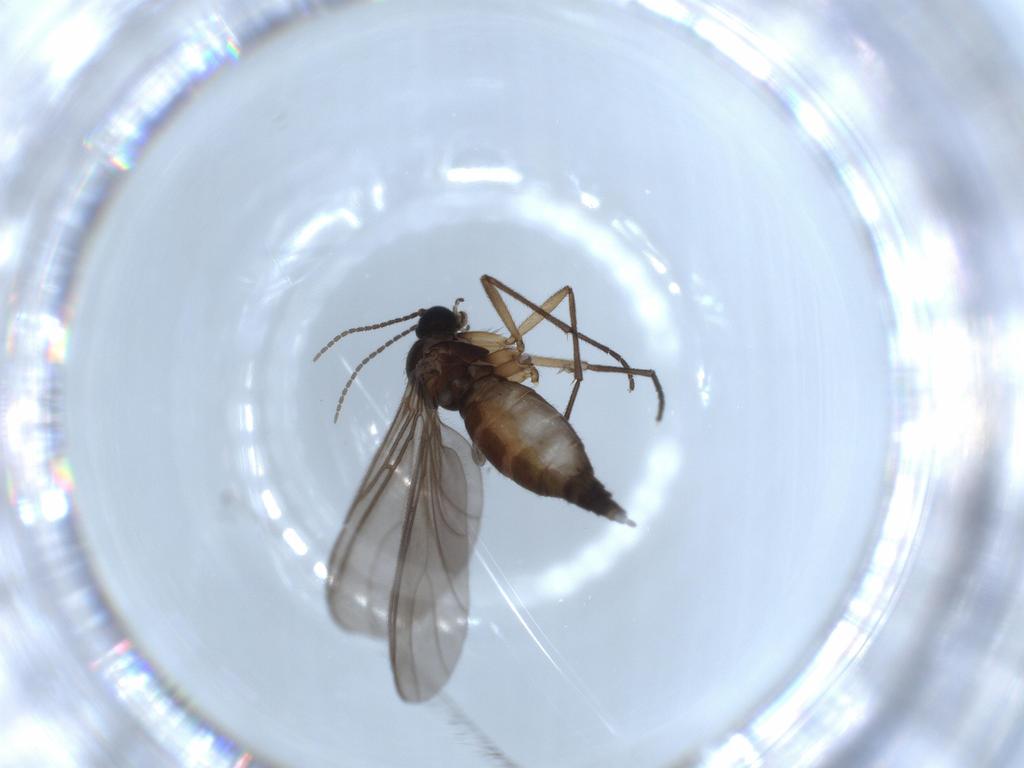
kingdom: Animalia
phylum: Arthropoda
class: Insecta
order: Diptera
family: Sciaridae
